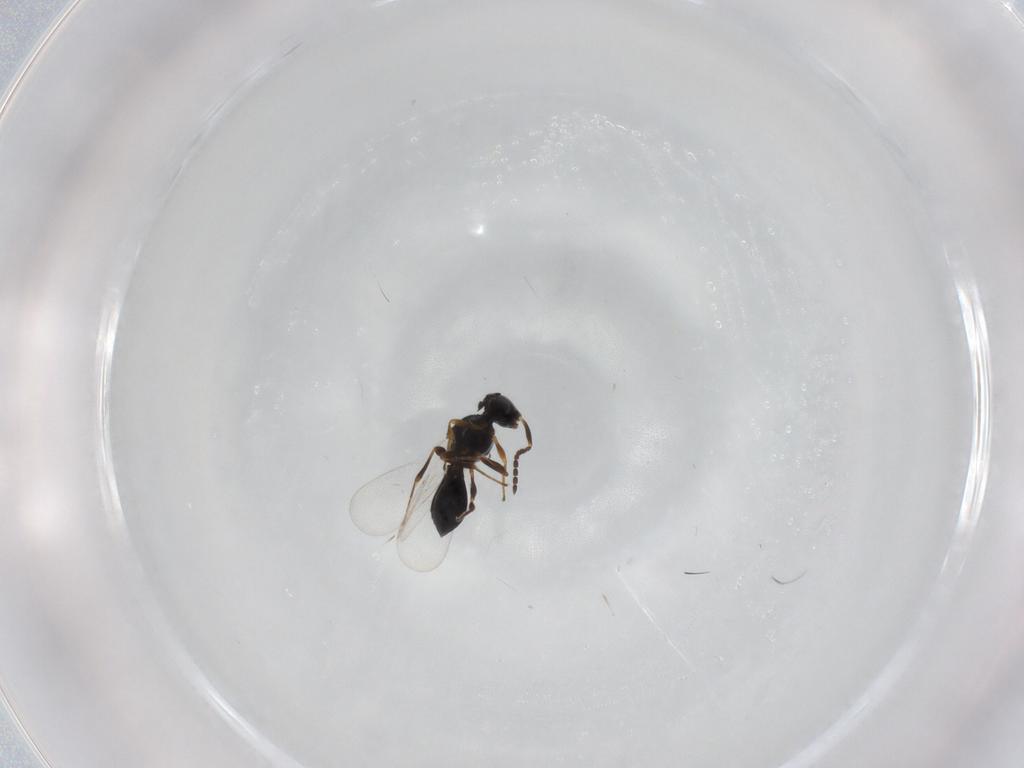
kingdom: Animalia
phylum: Arthropoda
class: Insecta
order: Hymenoptera
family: Platygastridae
